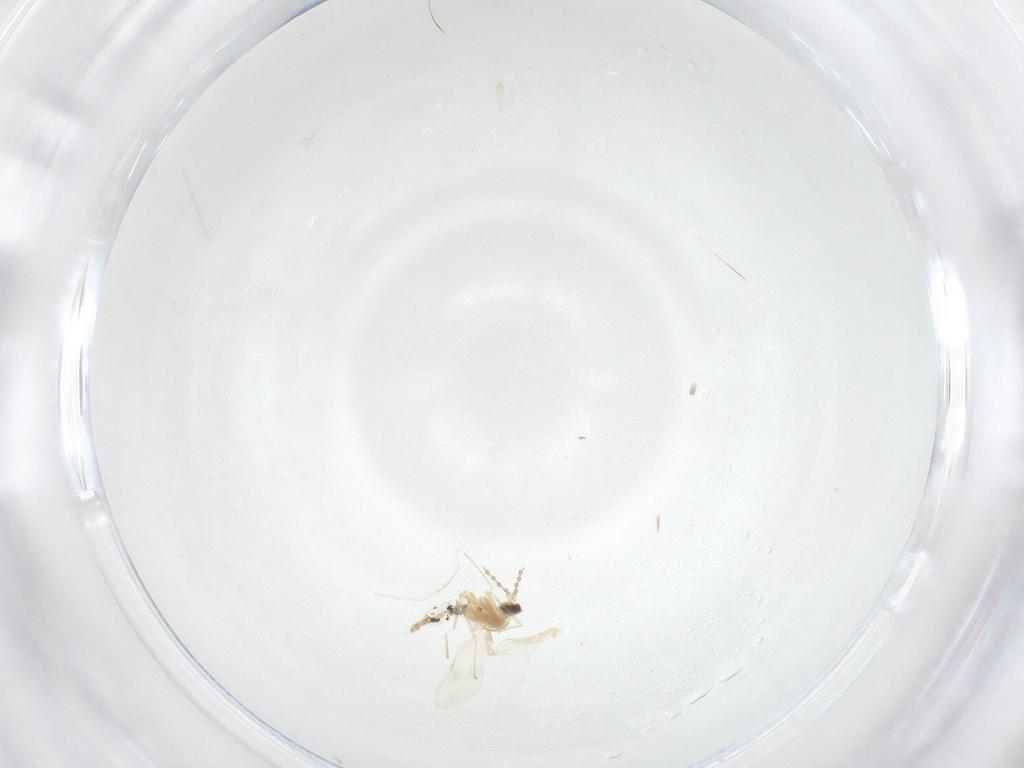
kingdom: Animalia
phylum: Arthropoda
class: Insecta
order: Diptera
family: Cecidomyiidae
